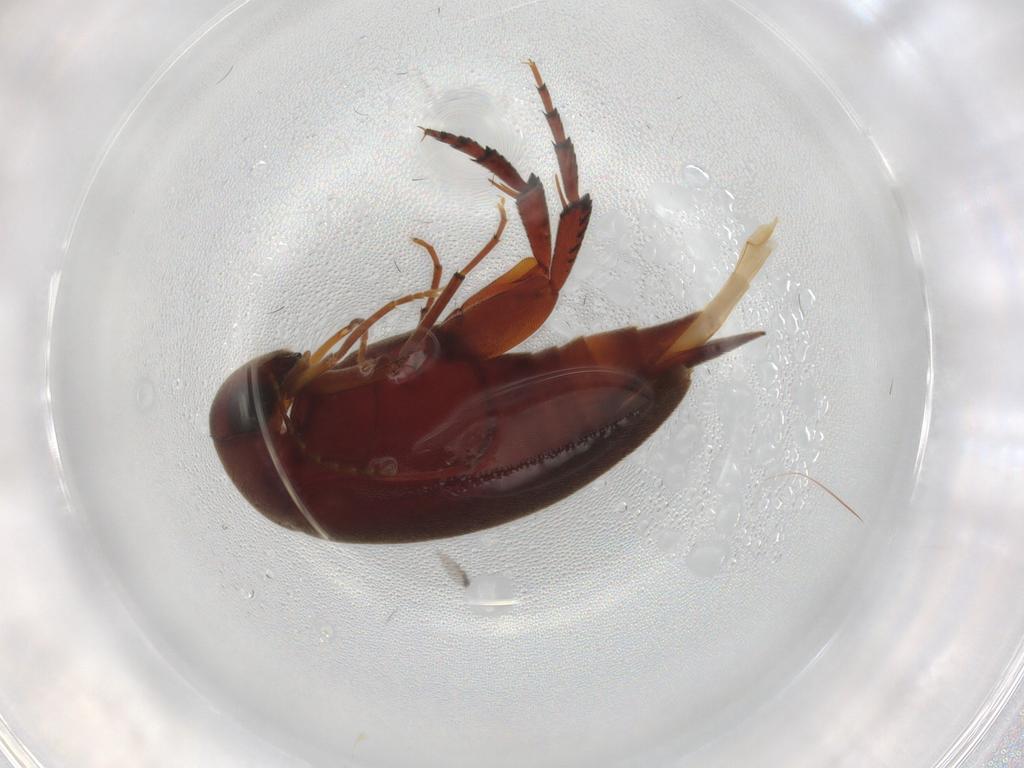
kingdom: Animalia
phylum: Arthropoda
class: Insecta
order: Coleoptera
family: Mordellidae
